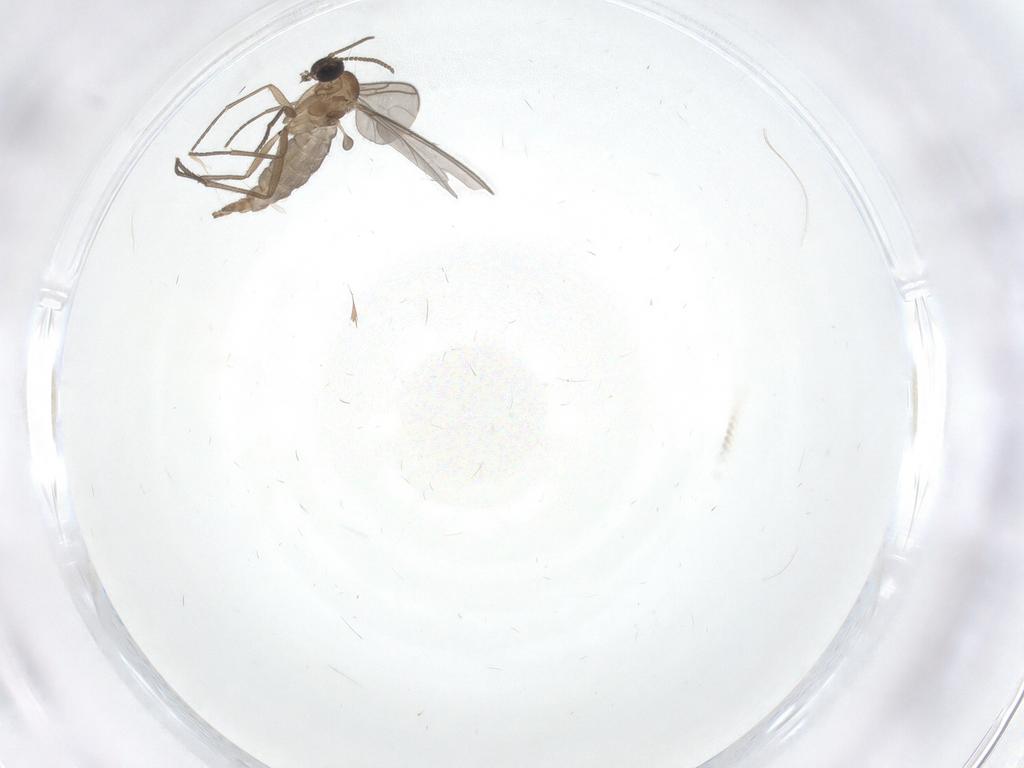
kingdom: Animalia
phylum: Arthropoda
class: Insecta
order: Diptera
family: Sciaridae
